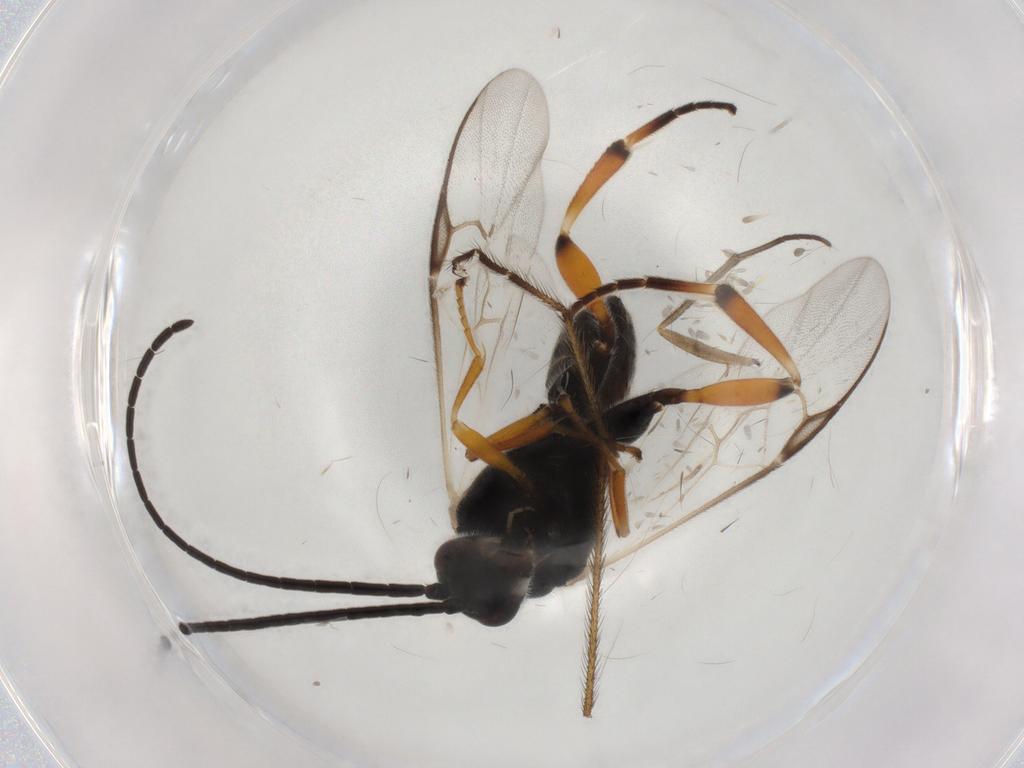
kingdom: Animalia
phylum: Arthropoda
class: Insecta
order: Hymenoptera
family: Braconidae
